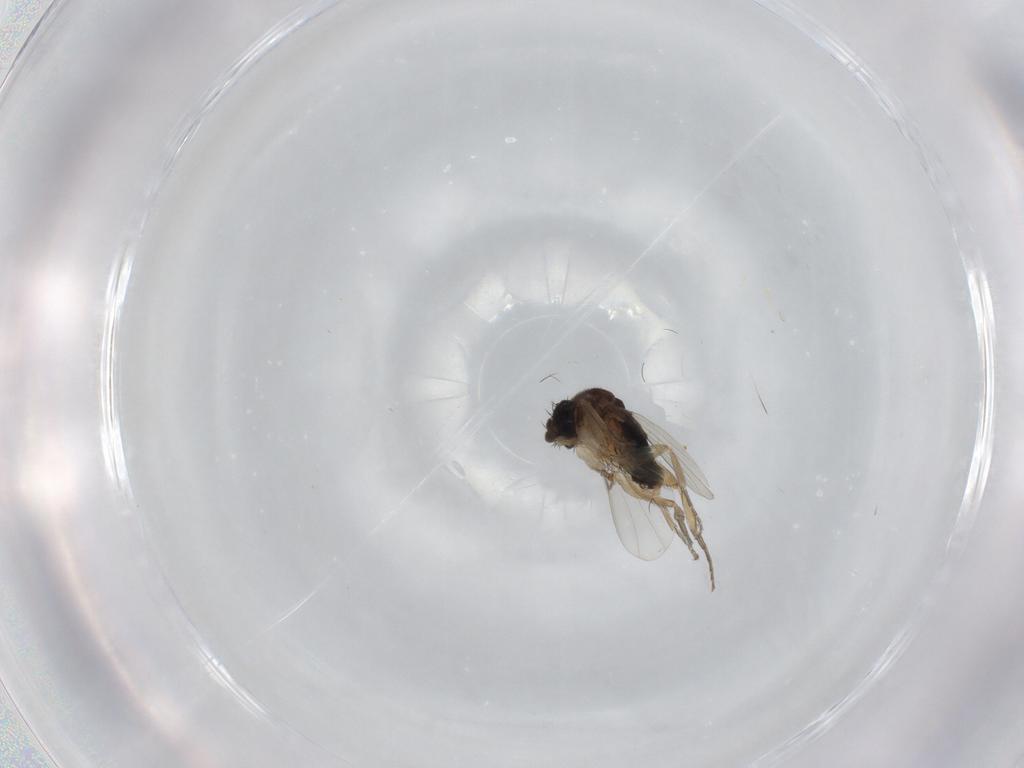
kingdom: Animalia
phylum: Arthropoda
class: Insecta
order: Diptera
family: Phoridae
